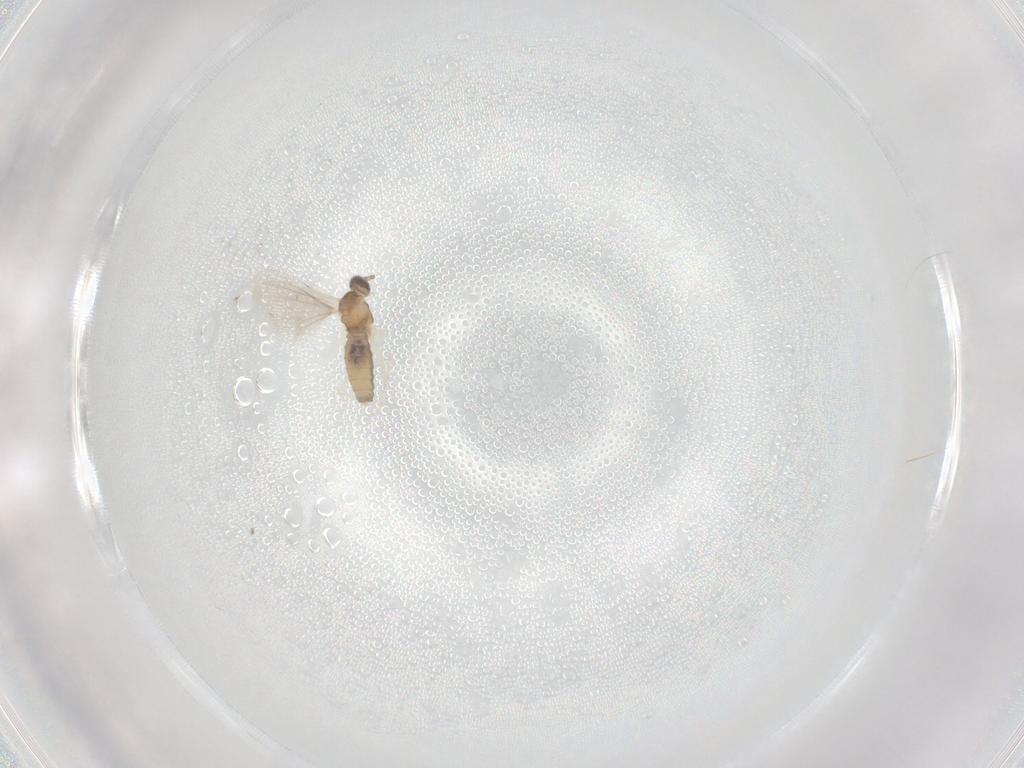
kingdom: Animalia
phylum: Arthropoda
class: Insecta
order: Diptera
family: Cecidomyiidae
